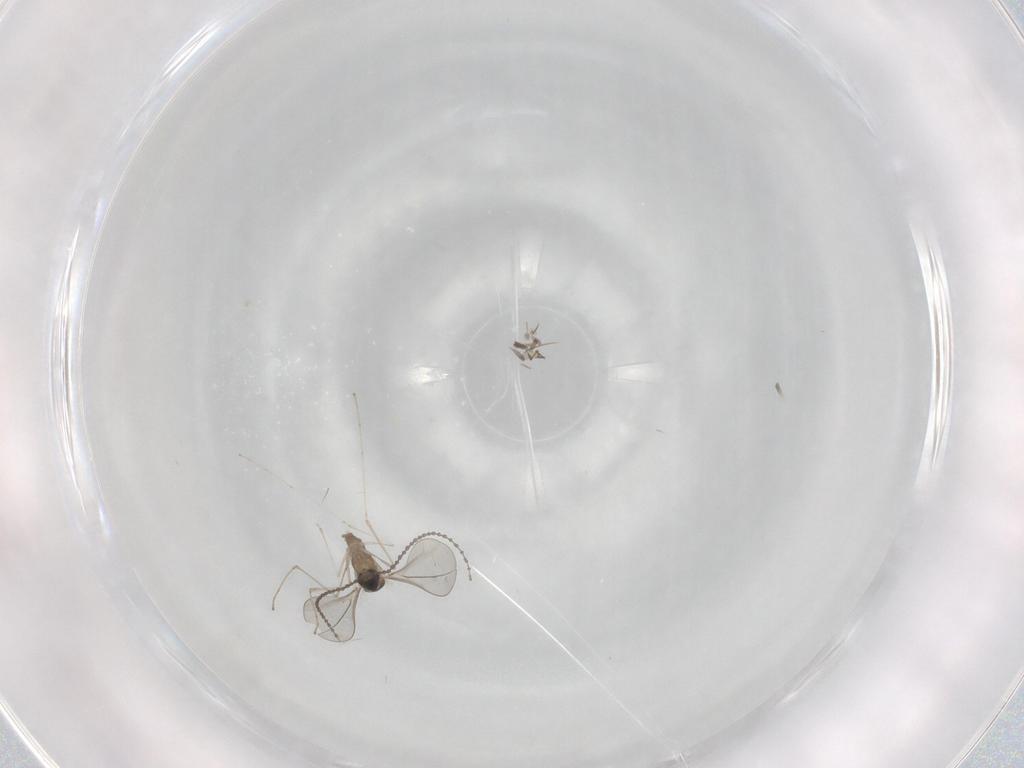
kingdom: Animalia
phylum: Arthropoda
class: Insecta
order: Diptera
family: Cecidomyiidae
